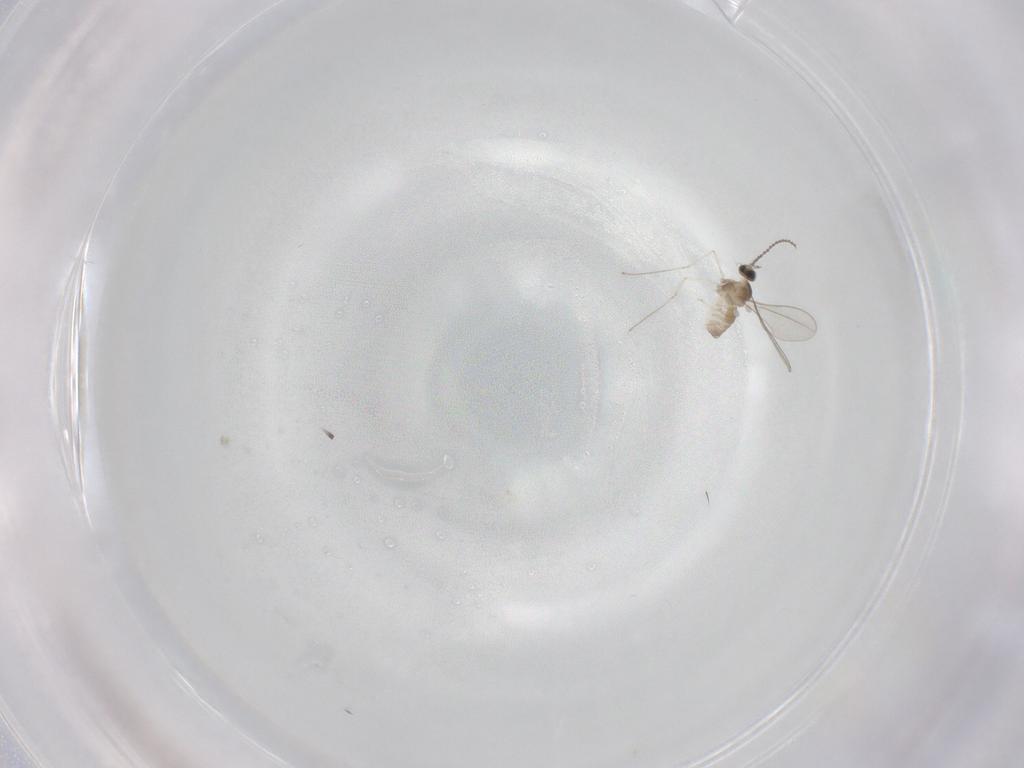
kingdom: Animalia
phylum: Arthropoda
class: Insecta
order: Diptera
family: Cecidomyiidae
